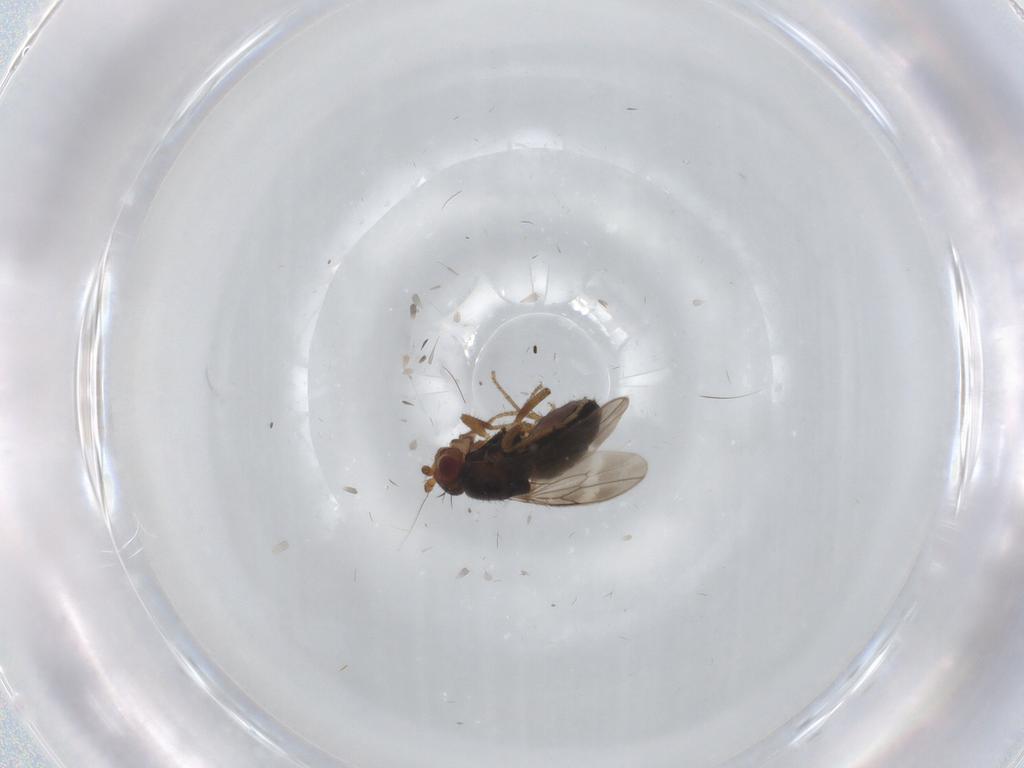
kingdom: Animalia
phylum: Arthropoda
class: Insecta
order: Diptera
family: Sphaeroceridae
